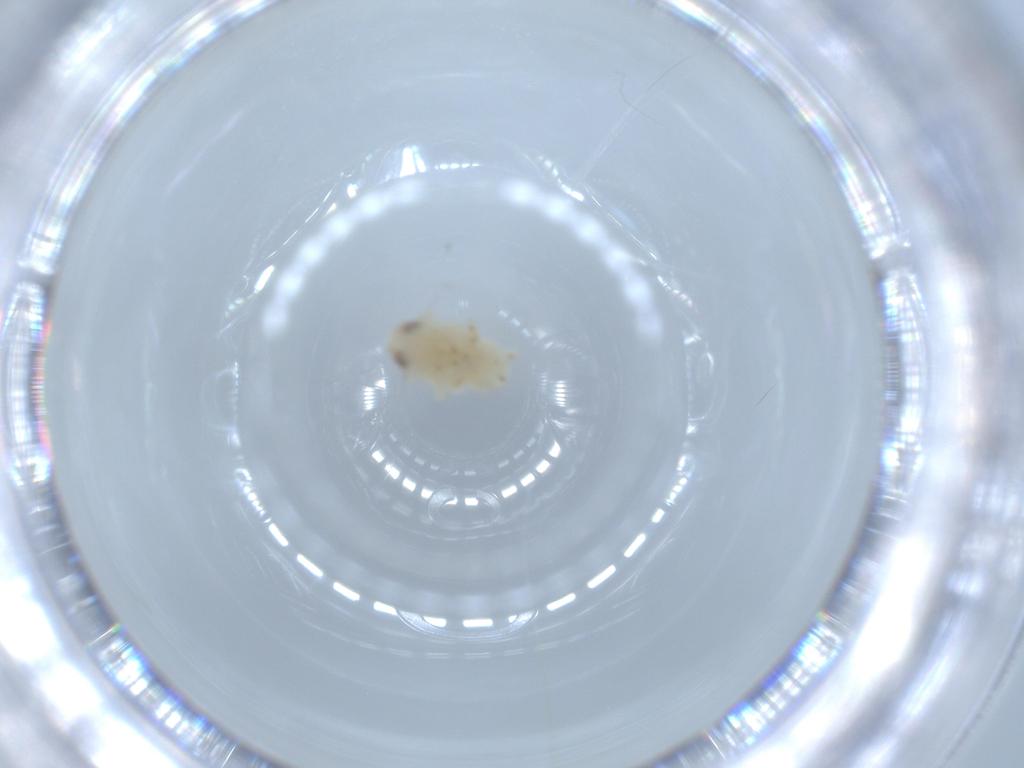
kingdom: Animalia
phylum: Arthropoda
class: Insecta
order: Hemiptera
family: Nogodinidae
